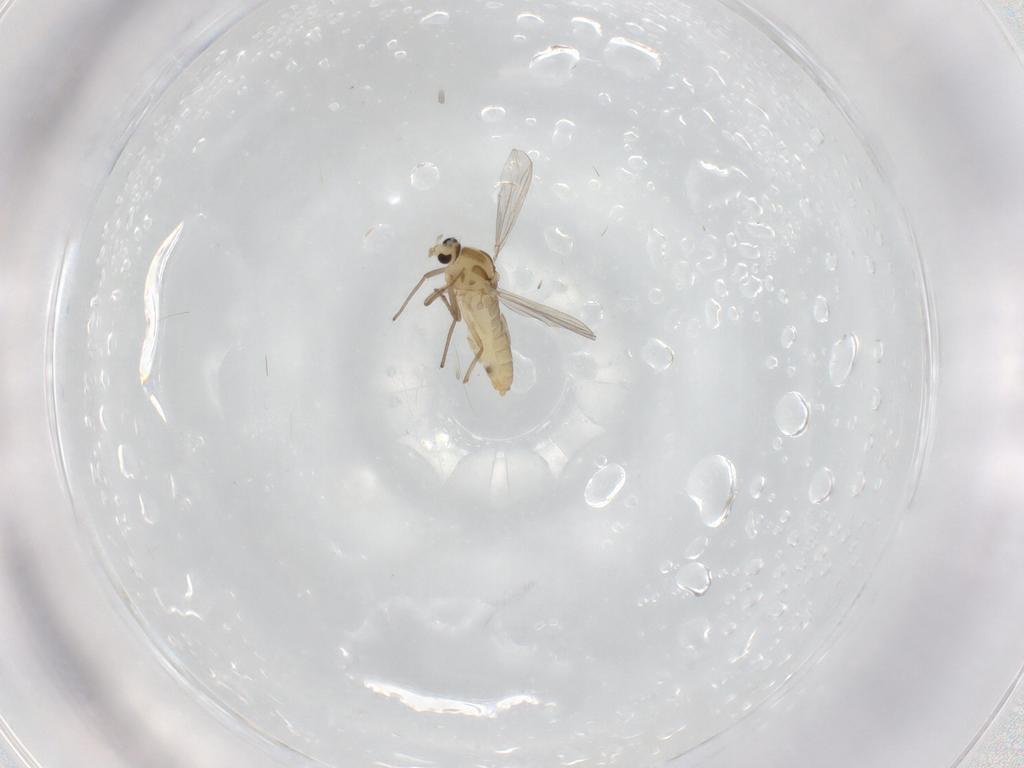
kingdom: Animalia
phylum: Arthropoda
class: Insecta
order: Diptera
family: Chironomidae
